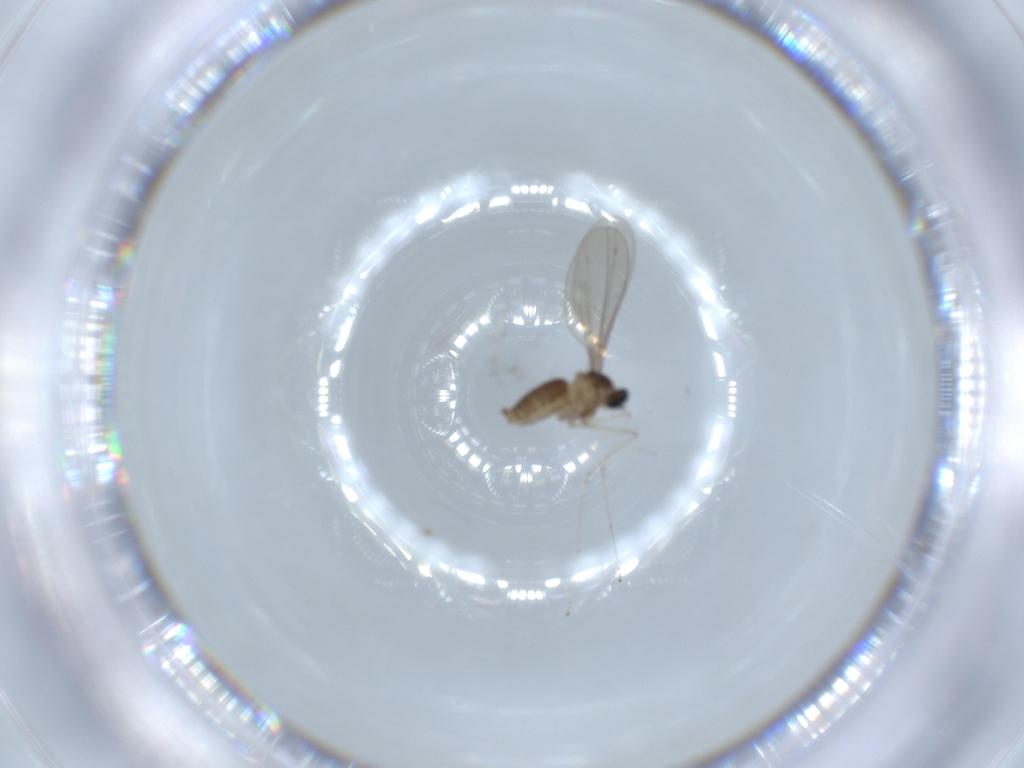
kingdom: Animalia
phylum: Arthropoda
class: Insecta
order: Diptera
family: Cecidomyiidae
